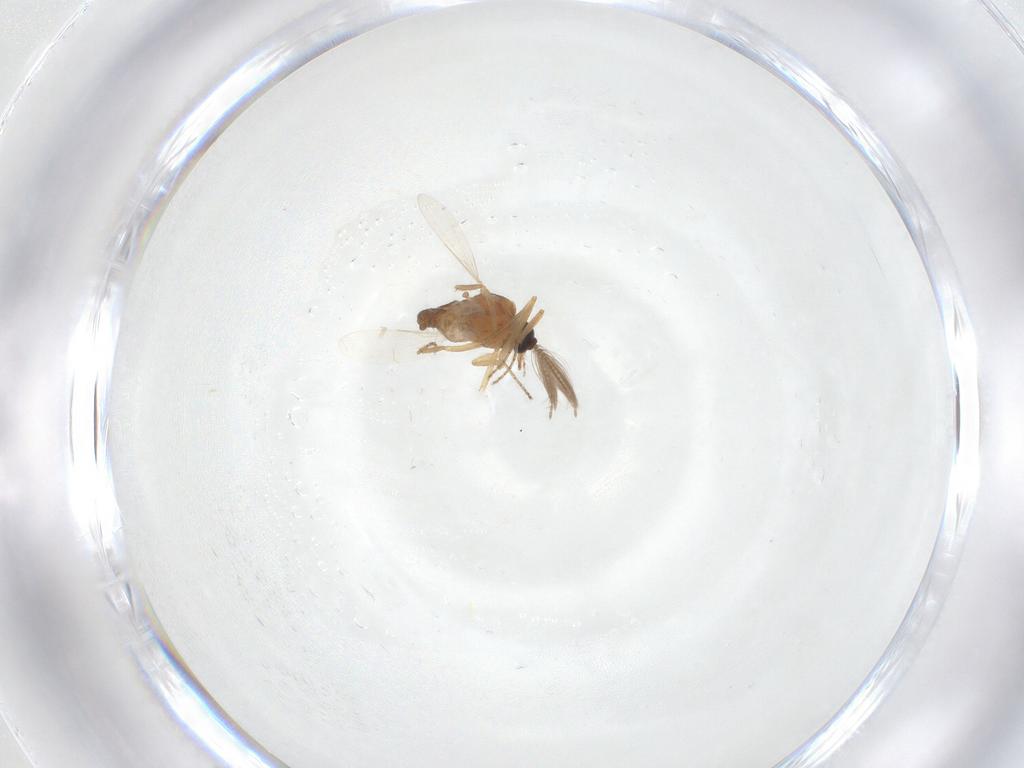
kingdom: Animalia
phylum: Arthropoda
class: Insecta
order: Diptera
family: Chironomidae
